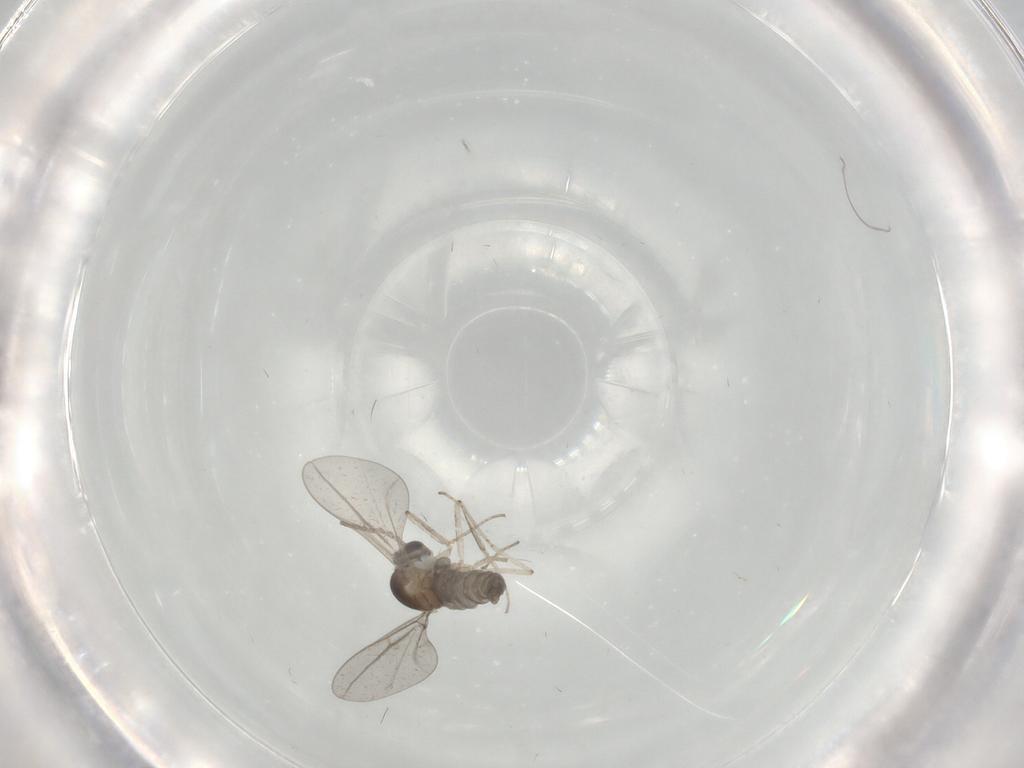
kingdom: Animalia
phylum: Arthropoda
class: Insecta
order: Diptera
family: Cecidomyiidae
